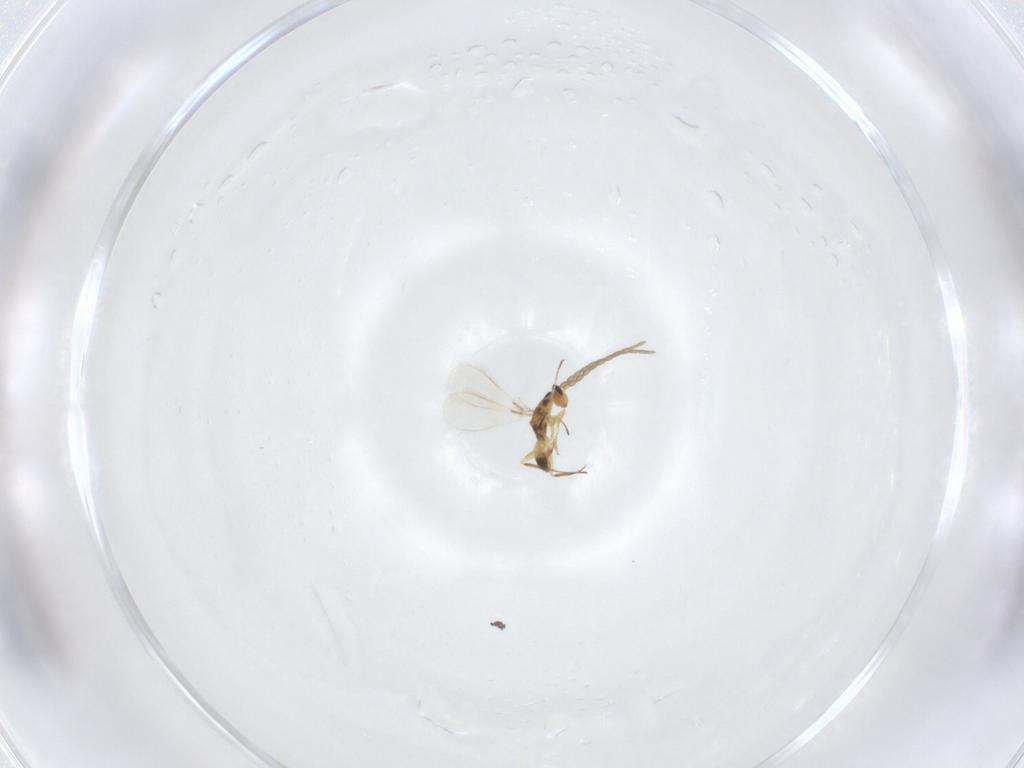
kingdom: Animalia
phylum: Arthropoda
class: Insecta
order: Hymenoptera
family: Mymaridae
